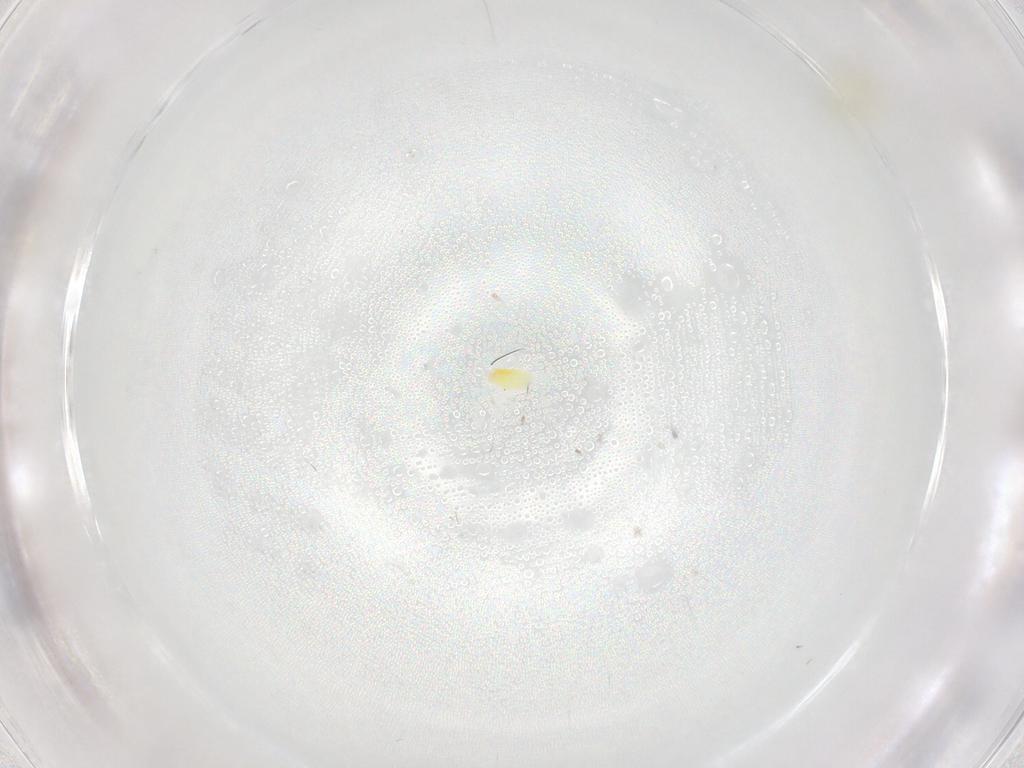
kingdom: Animalia
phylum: Arthropoda
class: Insecta
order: Hemiptera
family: Aleyrodidae
